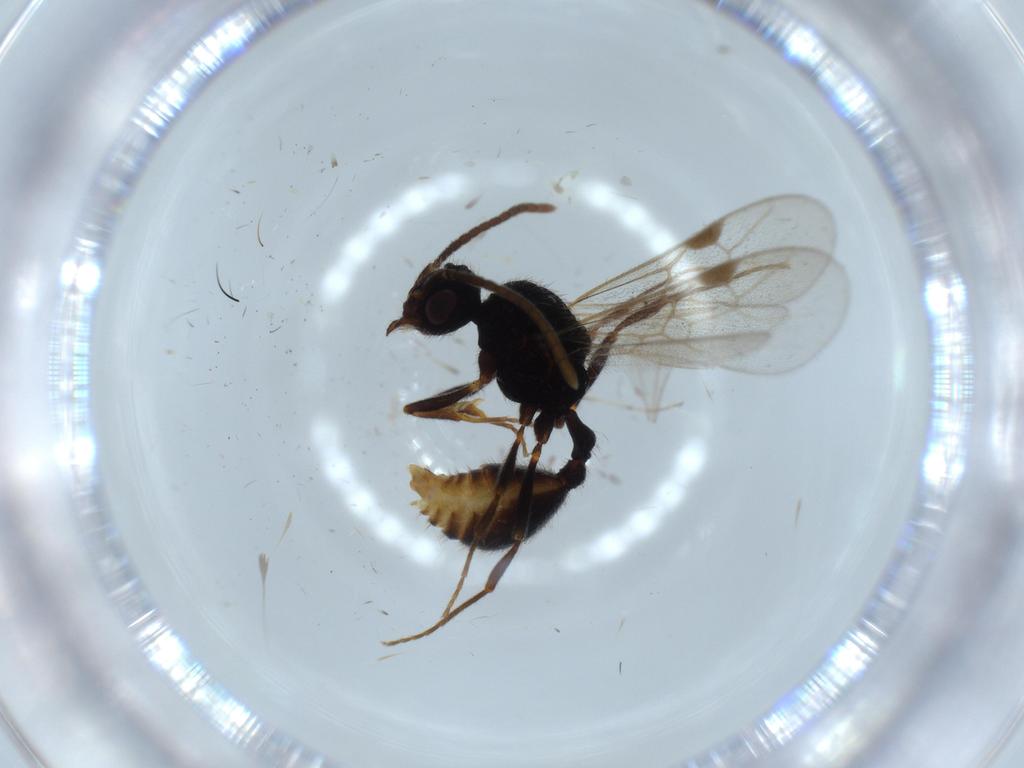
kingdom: Animalia
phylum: Arthropoda
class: Insecta
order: Hymenoptera
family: Formicidae
